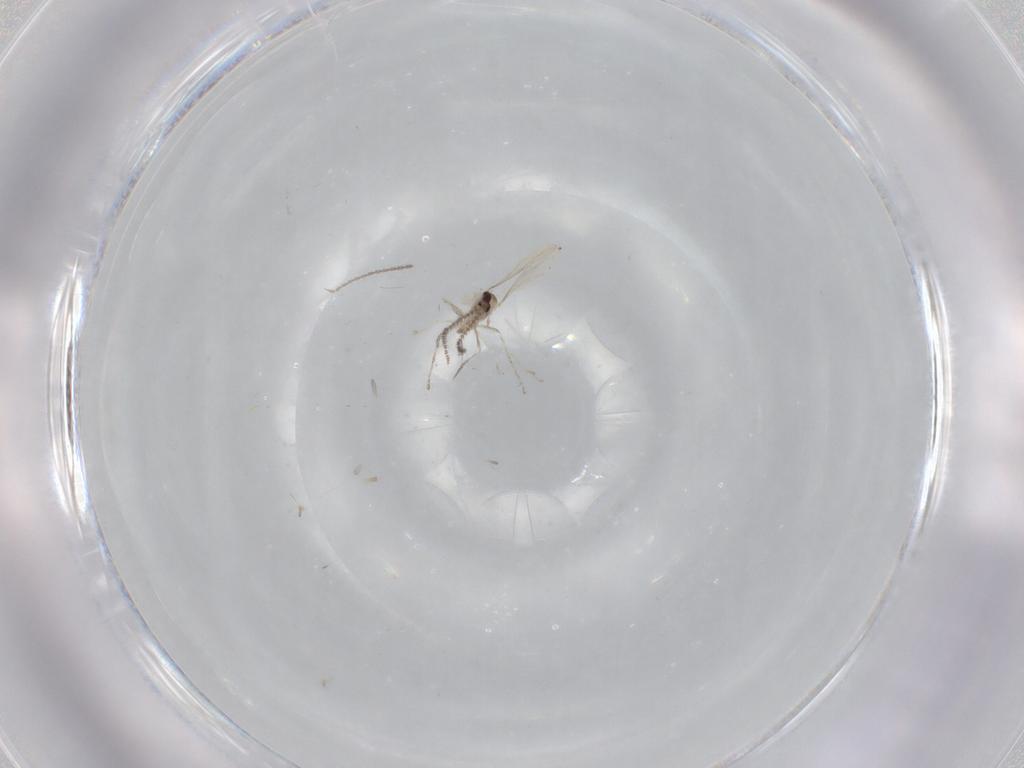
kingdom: Animalia
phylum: Arthropoda
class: Insecta
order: Diptera
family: Cecidomyiidae
